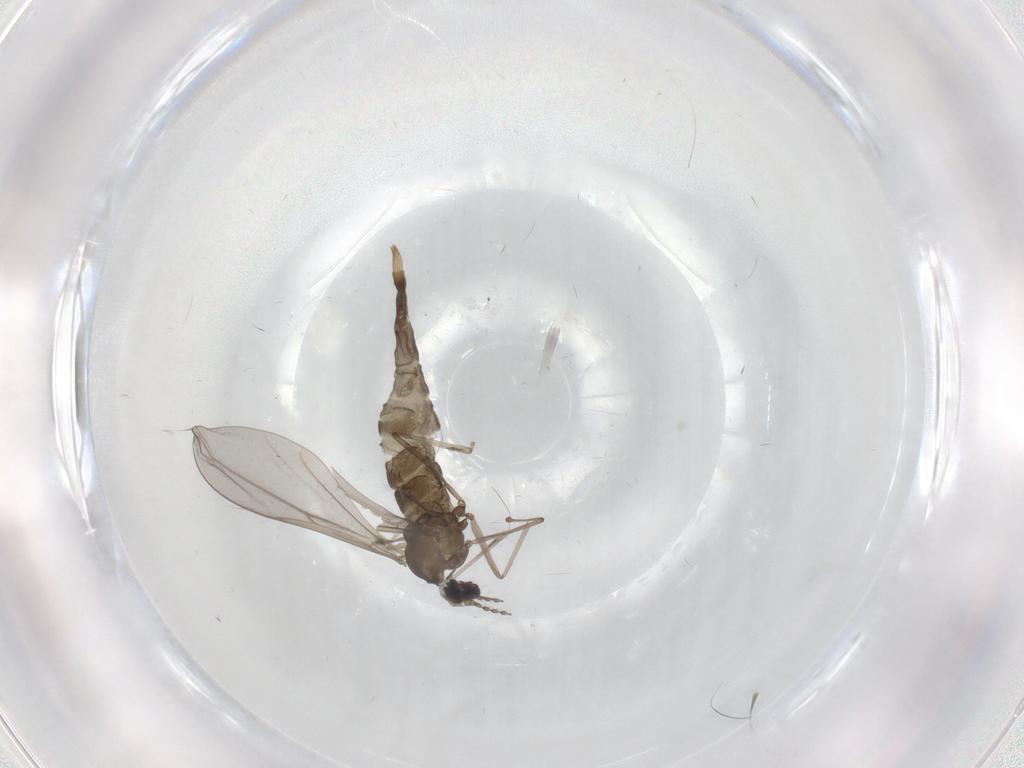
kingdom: Animalia
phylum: Arthropoda
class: Insecta
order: Diptera
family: Cecidomyiidae
